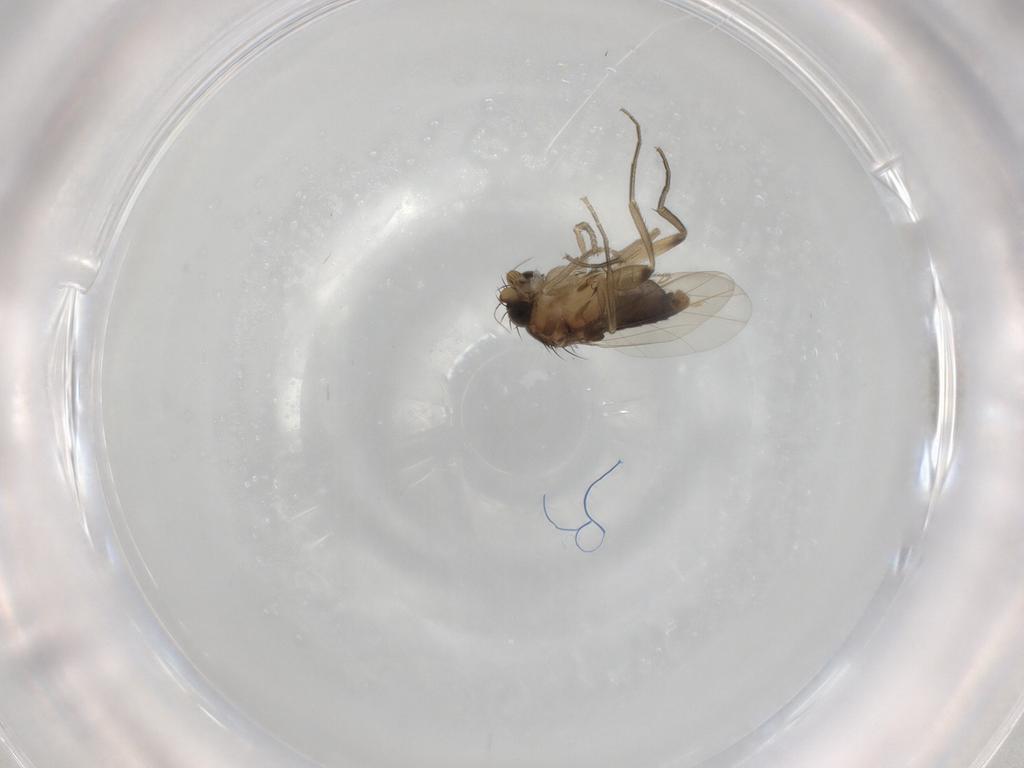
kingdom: Animalia
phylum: Arthropoda
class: Insecta
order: Diptera
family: Phoridae
